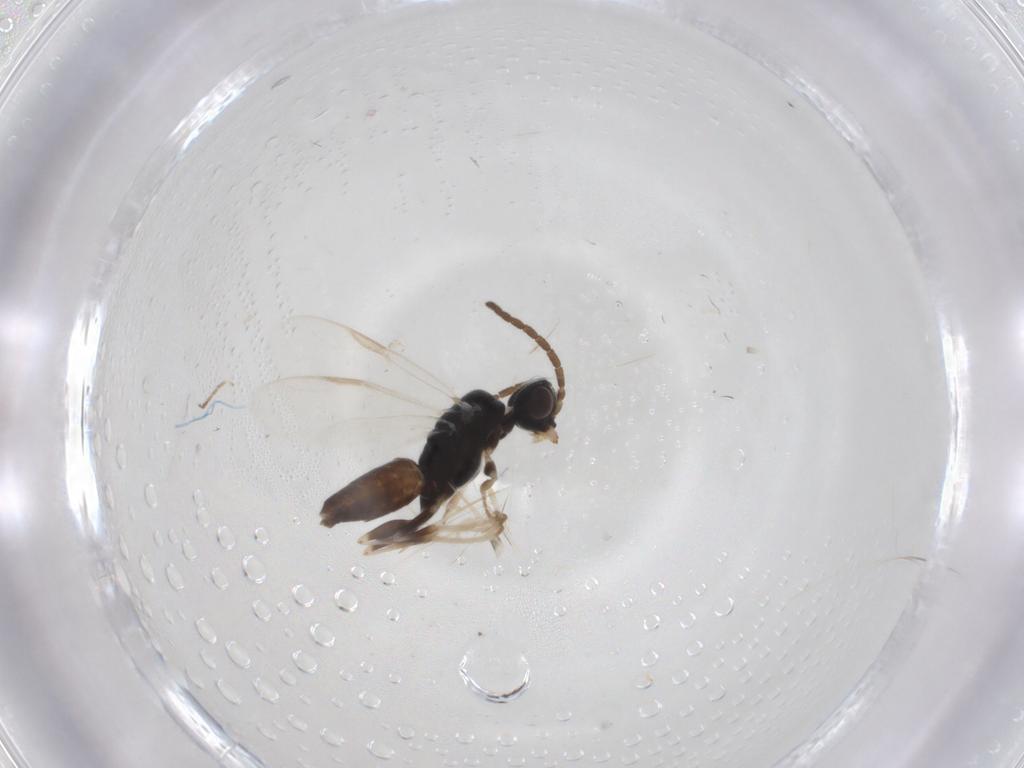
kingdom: Animalia
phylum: Arthropoda
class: Insecta
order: Hymenoptera
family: Dryinidae
